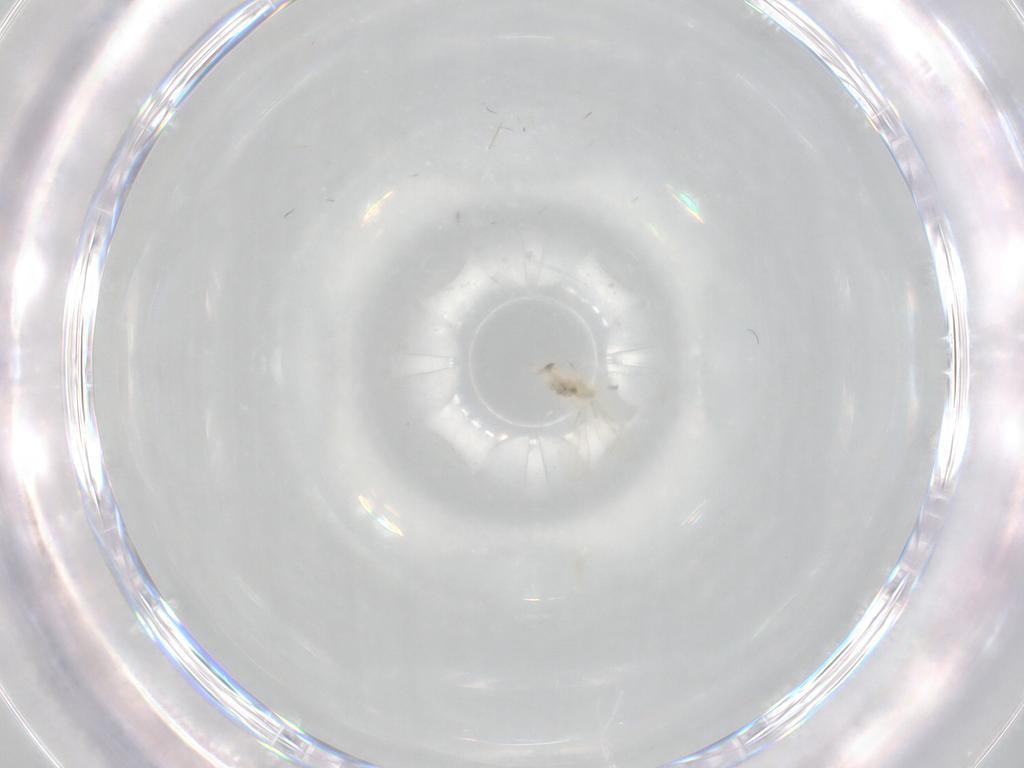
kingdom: Animalia
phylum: Arthropoda
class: Insecta
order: Diptera
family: Cecidomyiidae
